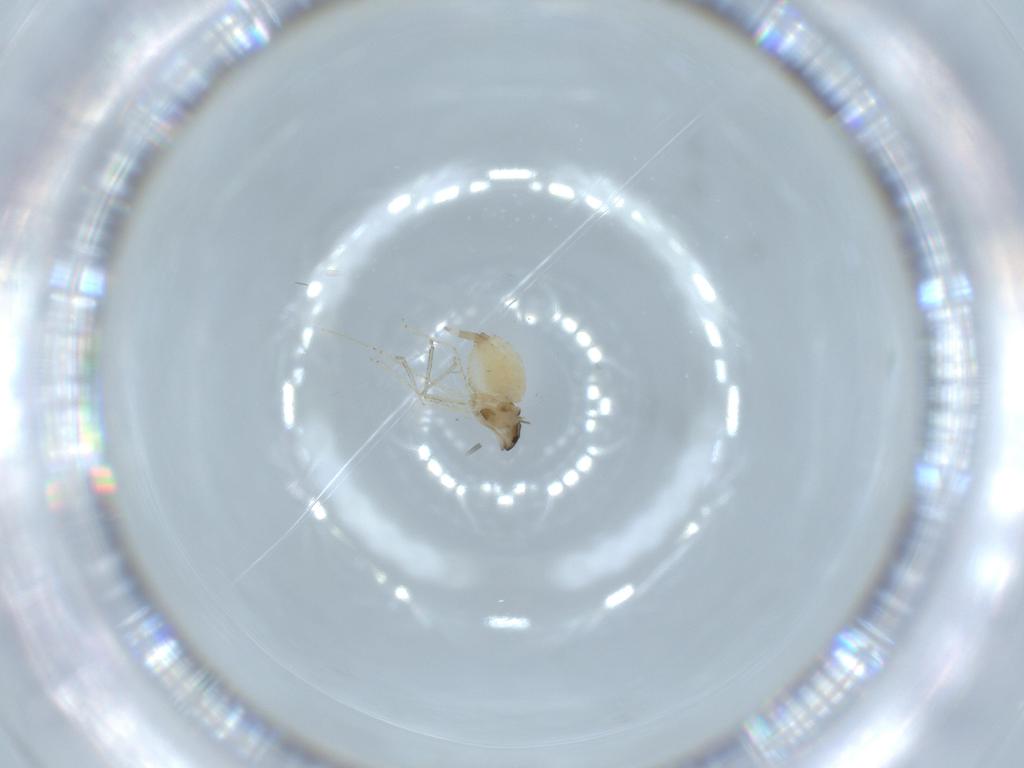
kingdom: Animalia
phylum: Arthropoda
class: Insecta
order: Diptera
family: Cecidomyiidae
